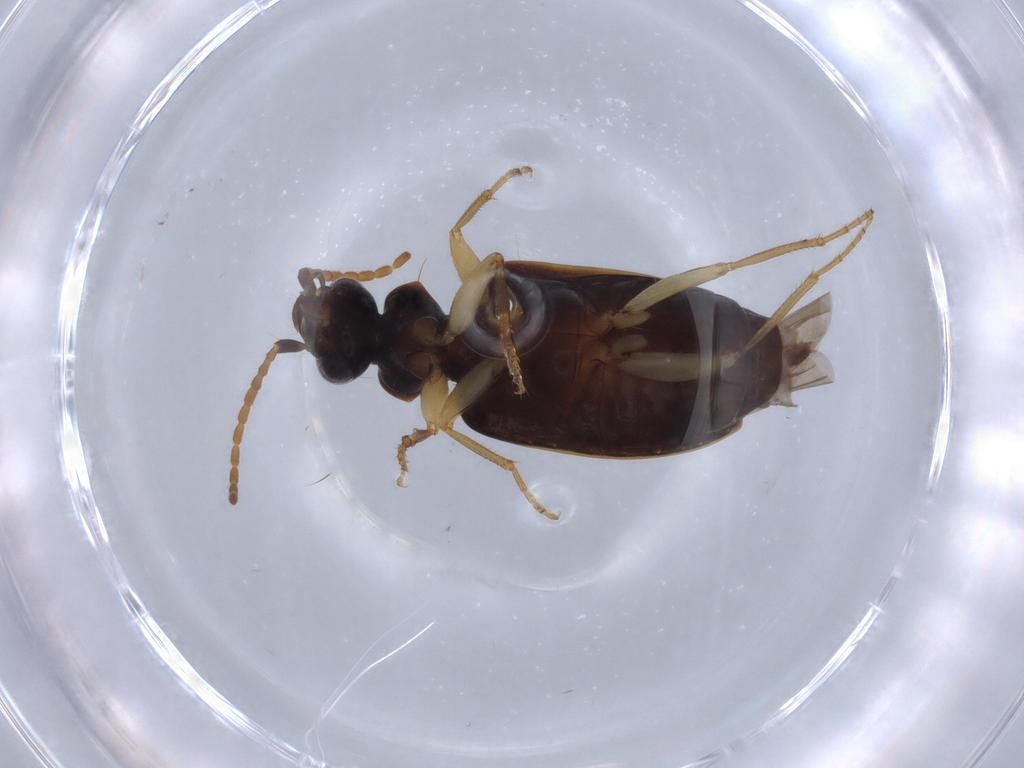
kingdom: Animalia
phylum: Arthropoda
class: Insecta
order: Coleoptera
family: Carabidae
